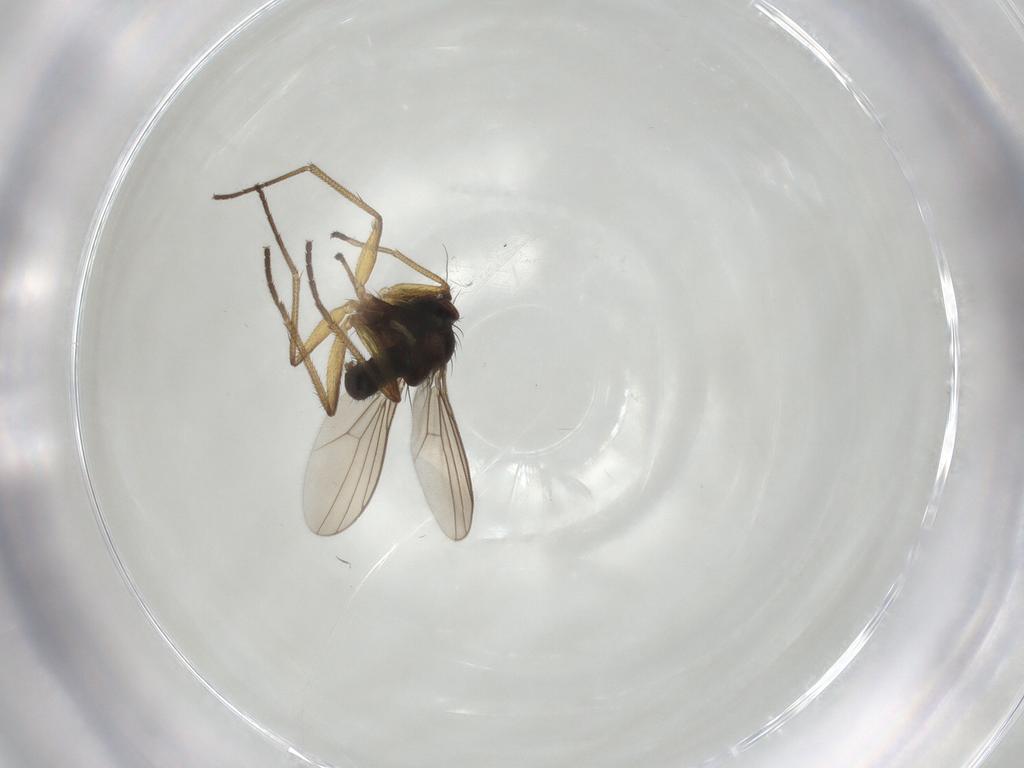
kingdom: Animalia
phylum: Arthropoda
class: Insecta
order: Diptera
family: Dolichopodidae
